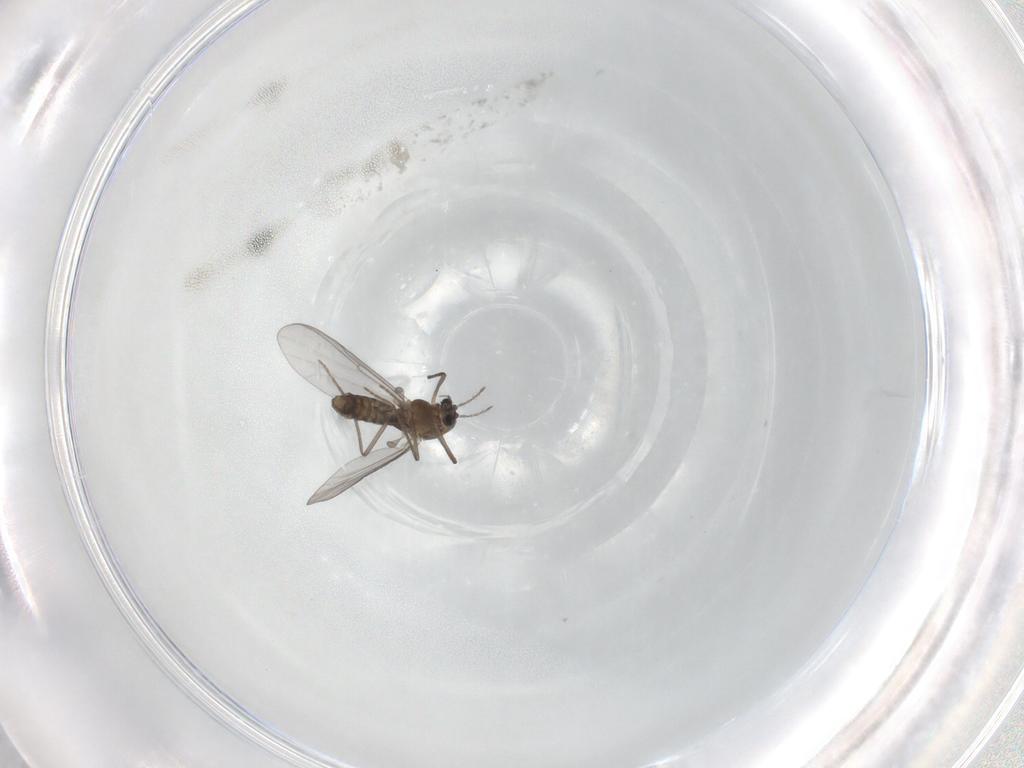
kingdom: Animalia
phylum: Arthropoda
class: Insecta
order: Diptera
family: Chironomidae
